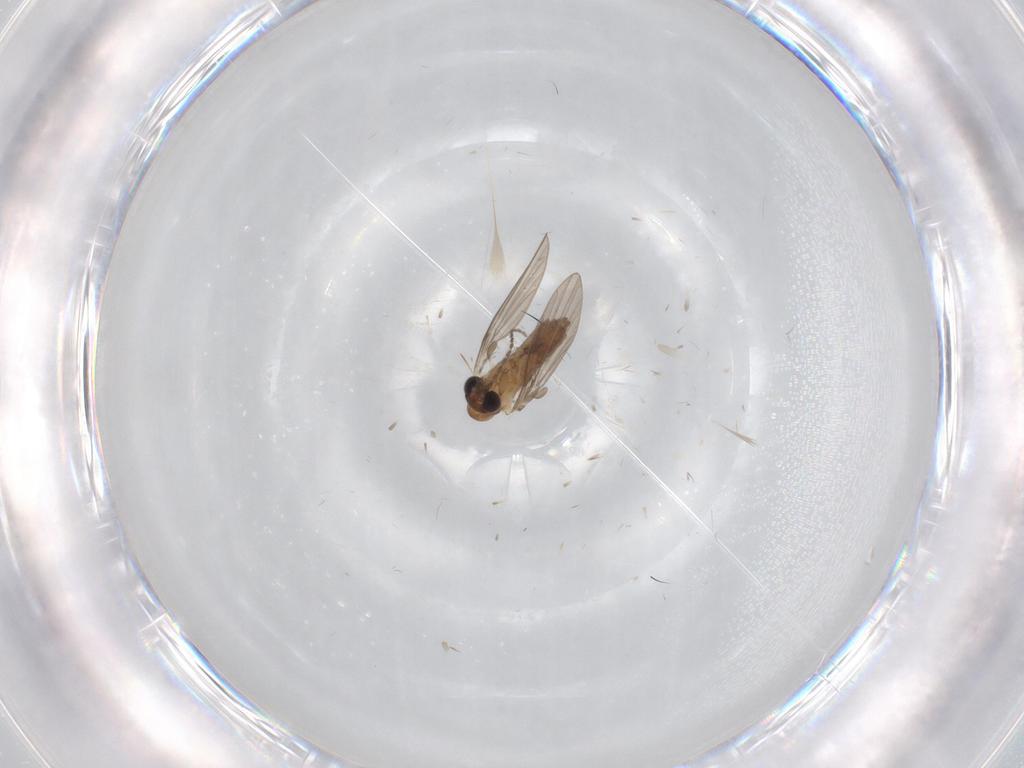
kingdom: Animalia
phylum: Arthropoda
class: Insecta
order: Diptera
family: Cecidomyiidae
